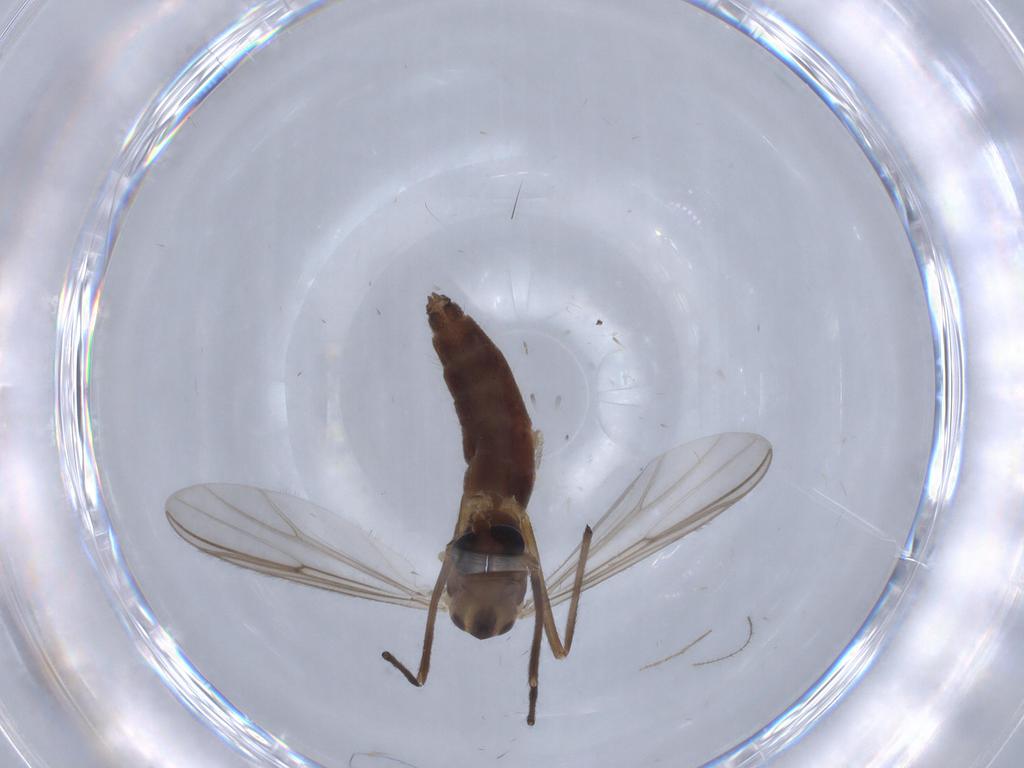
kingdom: Animalia
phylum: Arthropoda
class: Insecta
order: Diptera
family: Chironomidae
